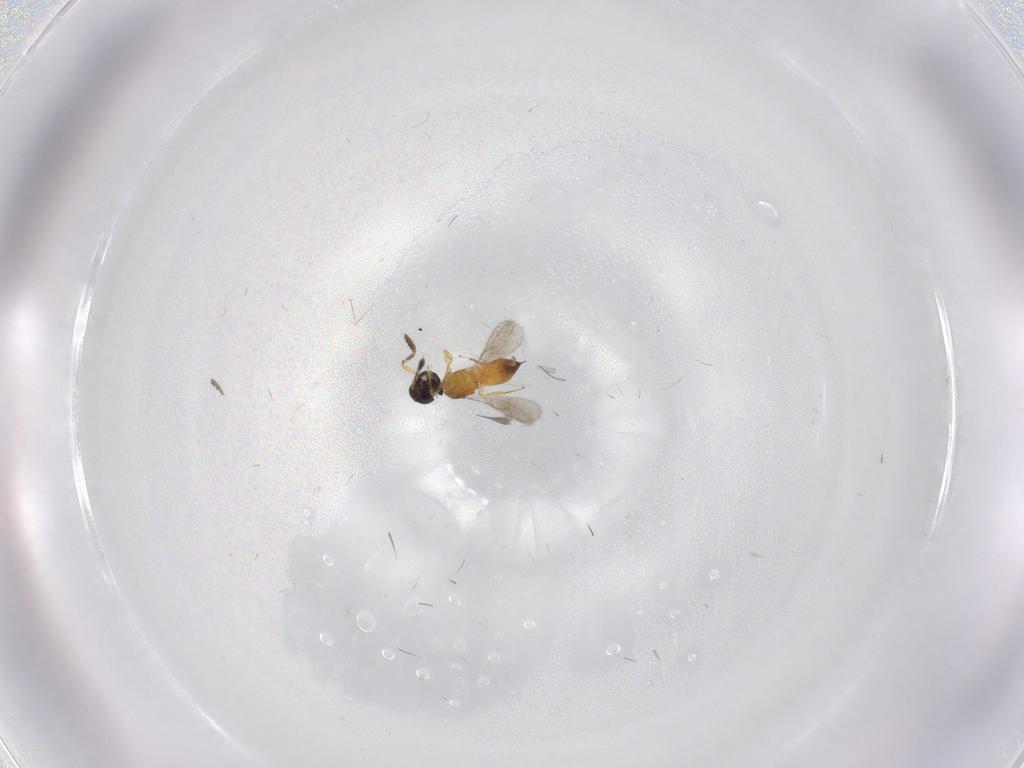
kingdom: Animalia
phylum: Arthropoda
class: Insecta
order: Hymenoptera
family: Scelionidae
